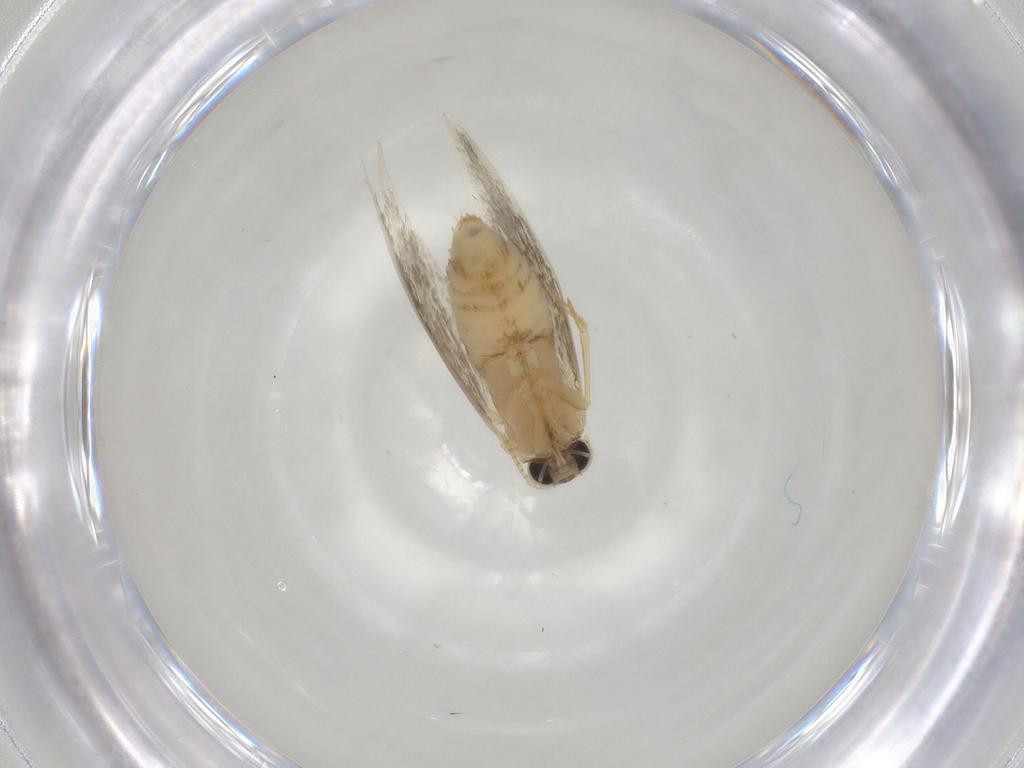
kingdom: Animalia
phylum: Arthropoda
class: Insecta
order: Lepidoptera
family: Tineidae
